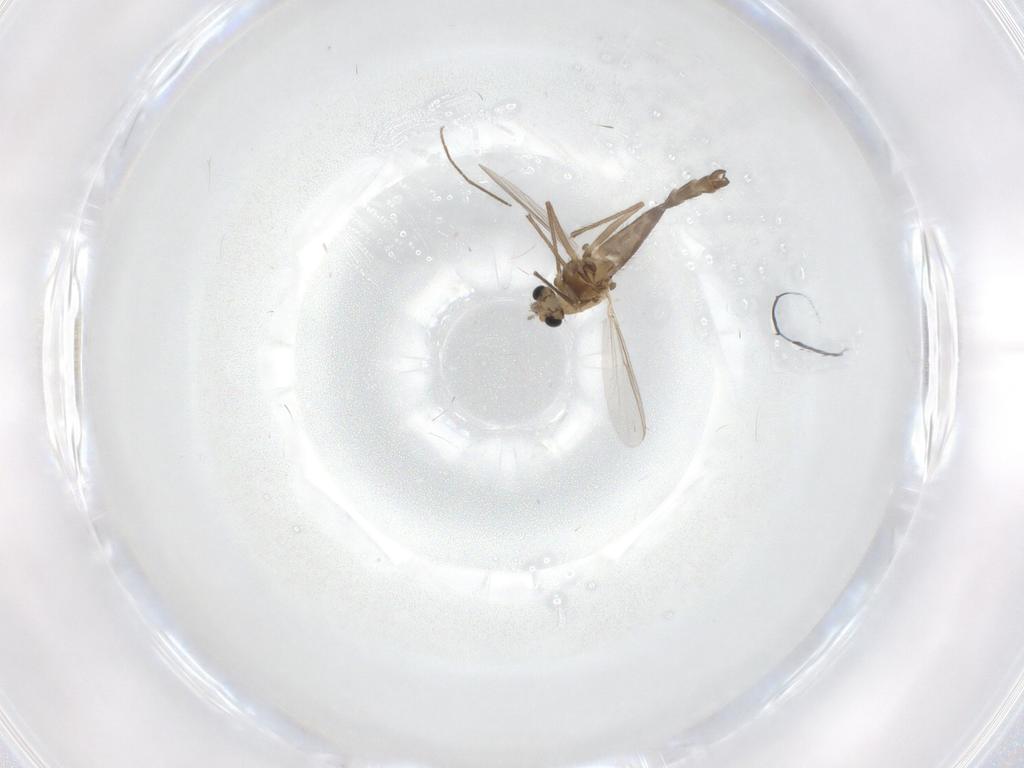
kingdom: Animalia
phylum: Arthropoda
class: Insecta
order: Diptera
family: Chironomidae
